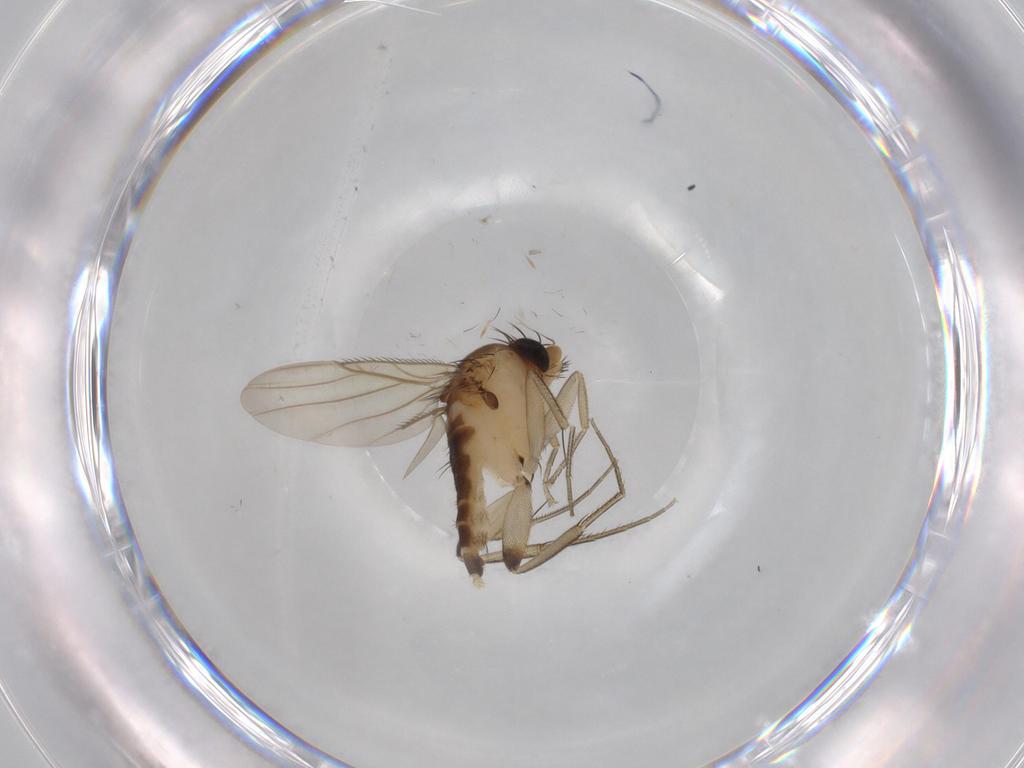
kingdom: Animalia
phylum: Arthropoda
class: Insecta
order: Diptera
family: Phoridae
